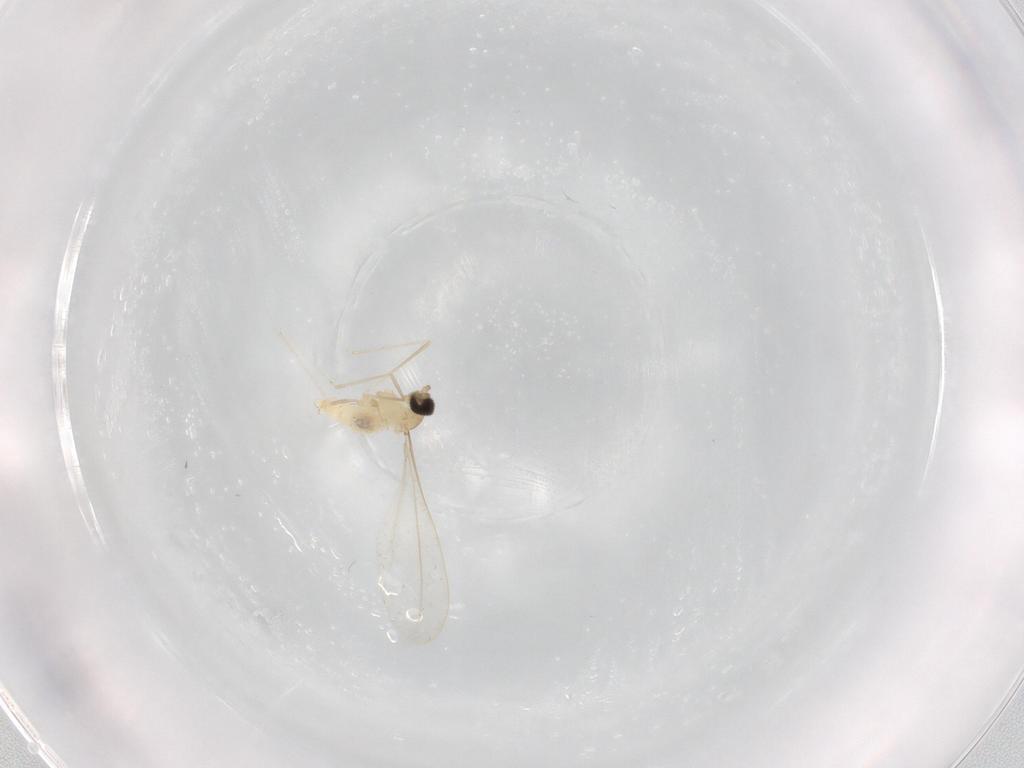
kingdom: Animalia
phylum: Arthropoda
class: Insecta
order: Diptera
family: Cecidomyiidae
